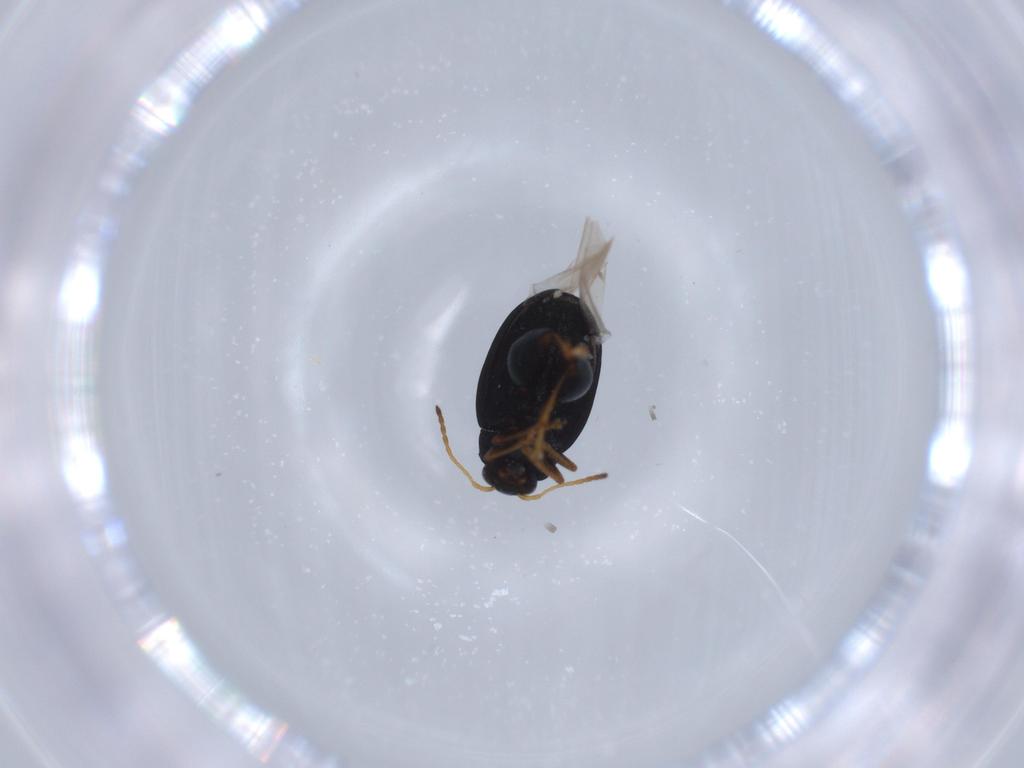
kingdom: Animalia
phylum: Arthropoda
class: Insecta
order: Coleoptera
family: Chrysomelidae
